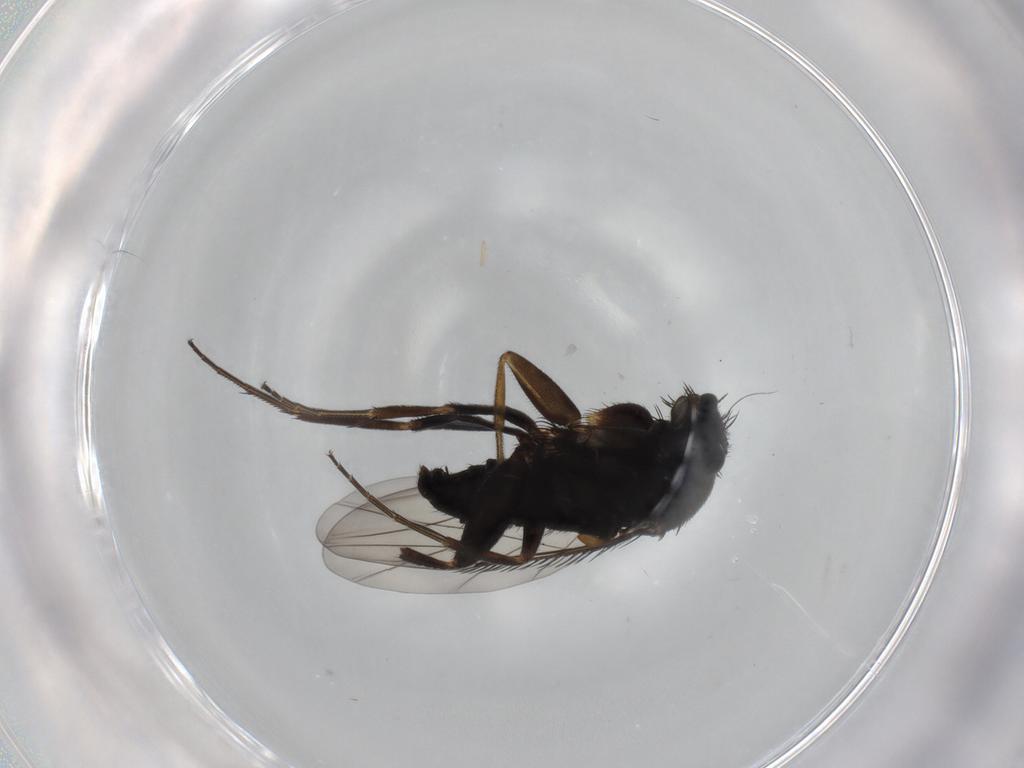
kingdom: Animalia
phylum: Arthropoda
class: Insecta
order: Diptera
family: Phoridae
